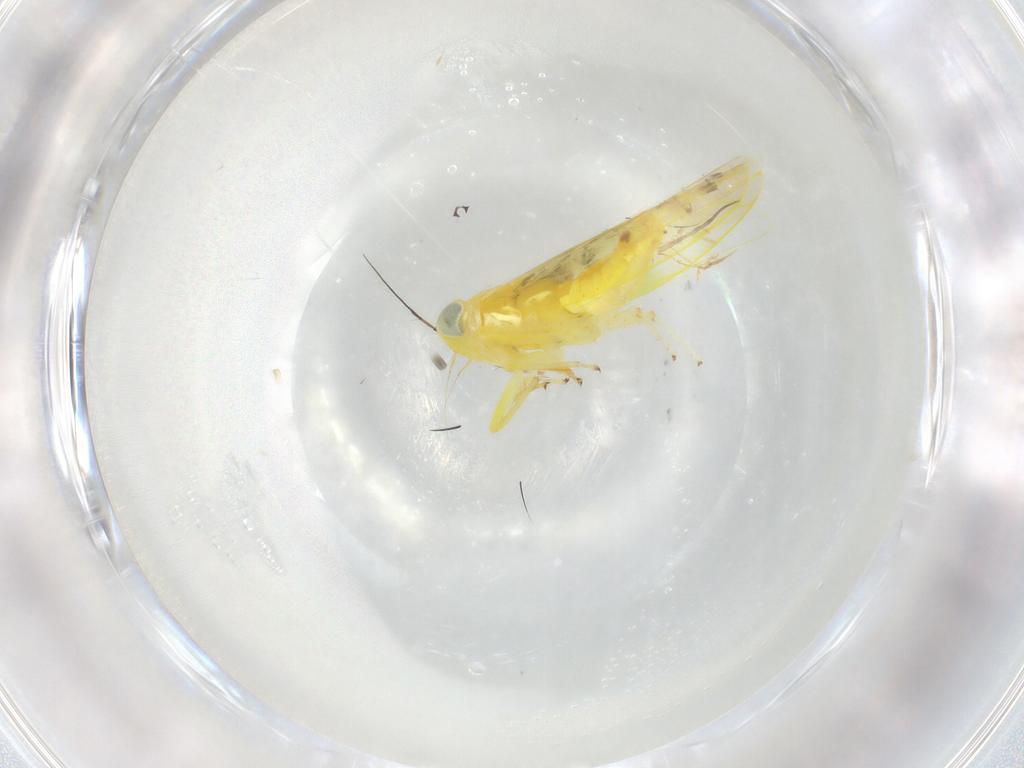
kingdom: Animalia
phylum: Arthropoda
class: Insecta
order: Hemiptera
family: Cicadellidae
